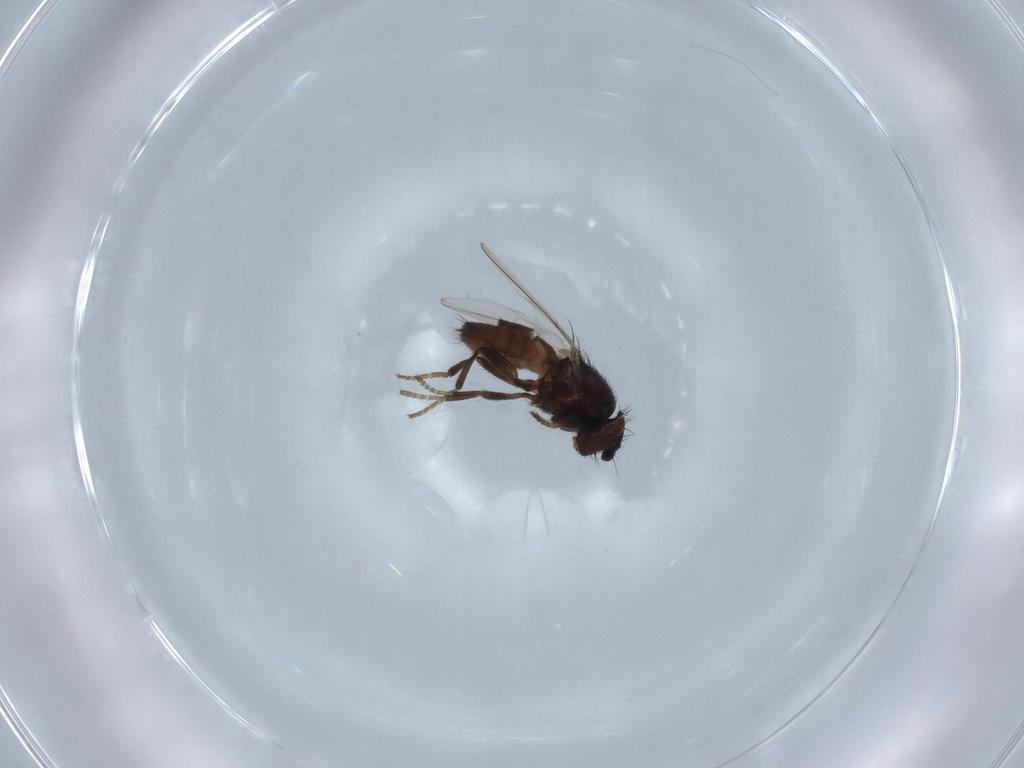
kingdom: Animalia
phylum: Arthropoda
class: Insecta
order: Diptera
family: Milichiidae
